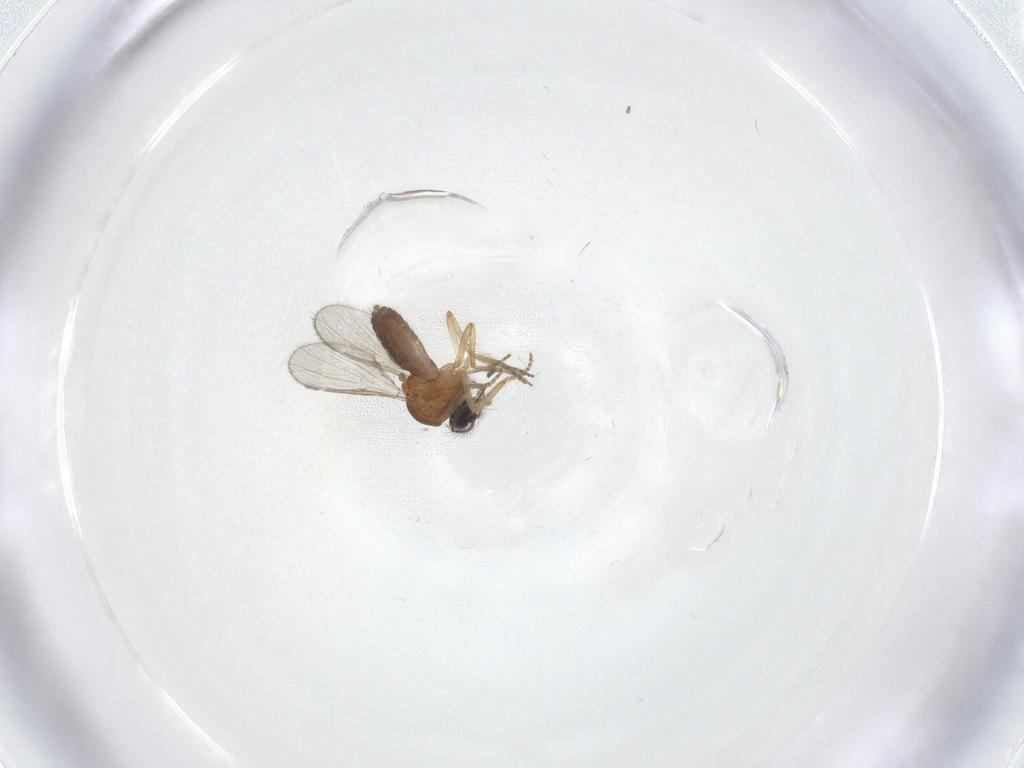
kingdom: Animalia
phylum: Arthropoda
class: Insecta
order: Diptera
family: Ceratopogonidae
